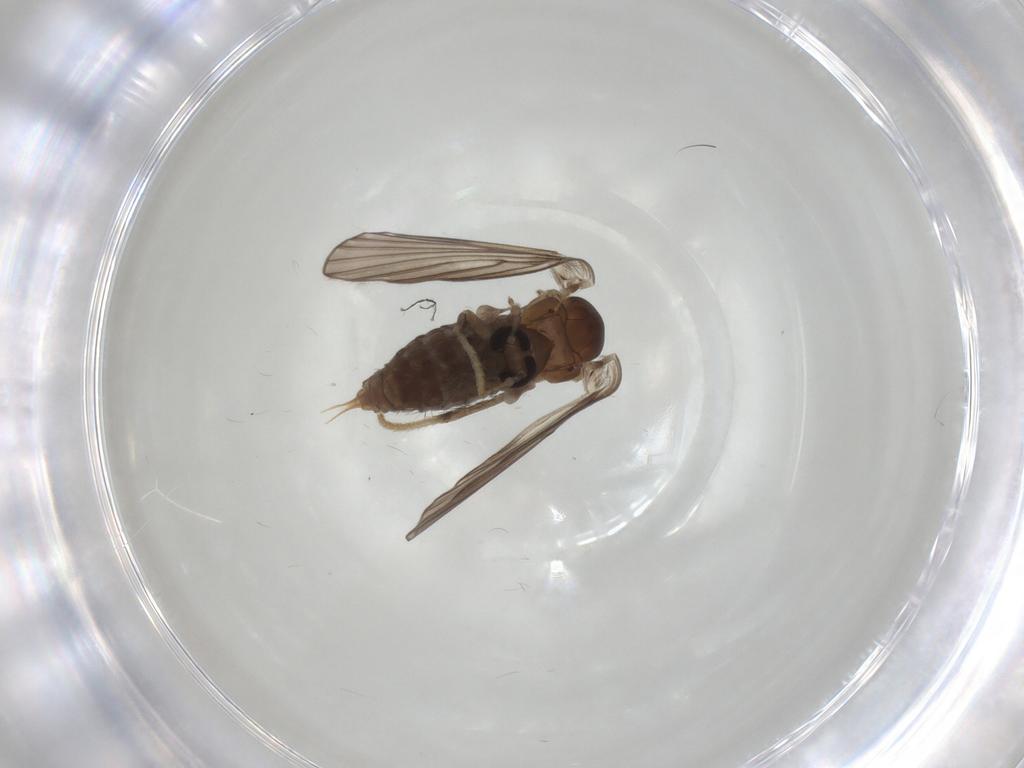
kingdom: Animalia
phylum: Arthropoda
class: Insecta
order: Diptera
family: Psychodidae
